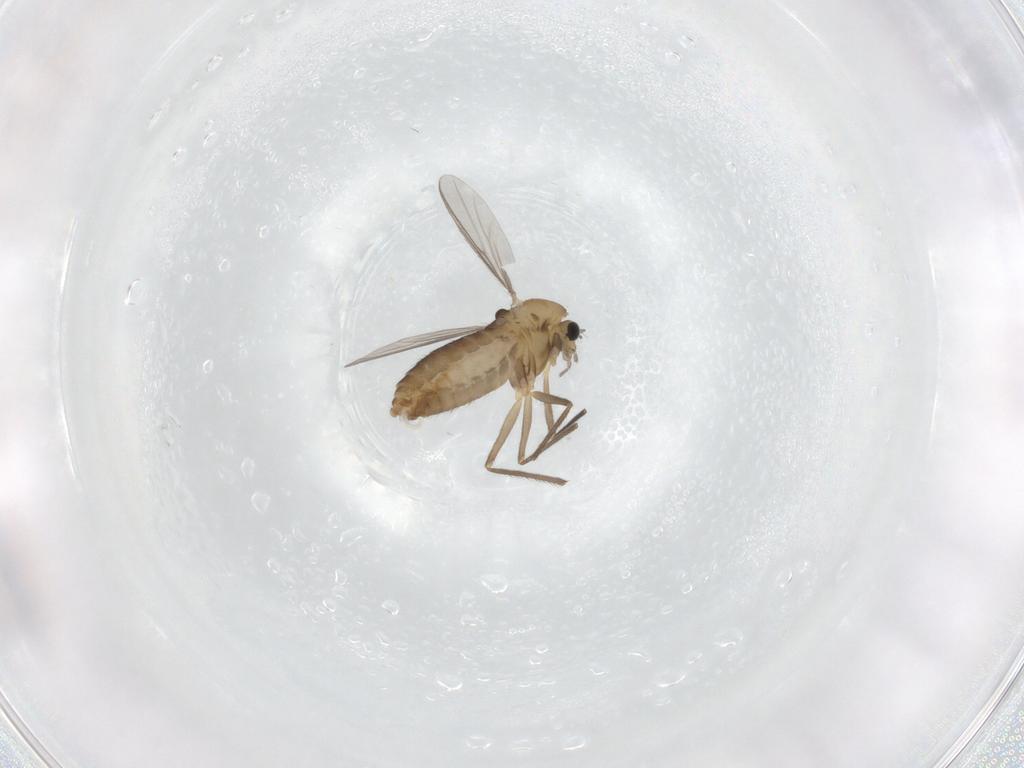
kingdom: Animalia
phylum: Arthropoda
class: Insecta
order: Diptera
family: Chironomidae
